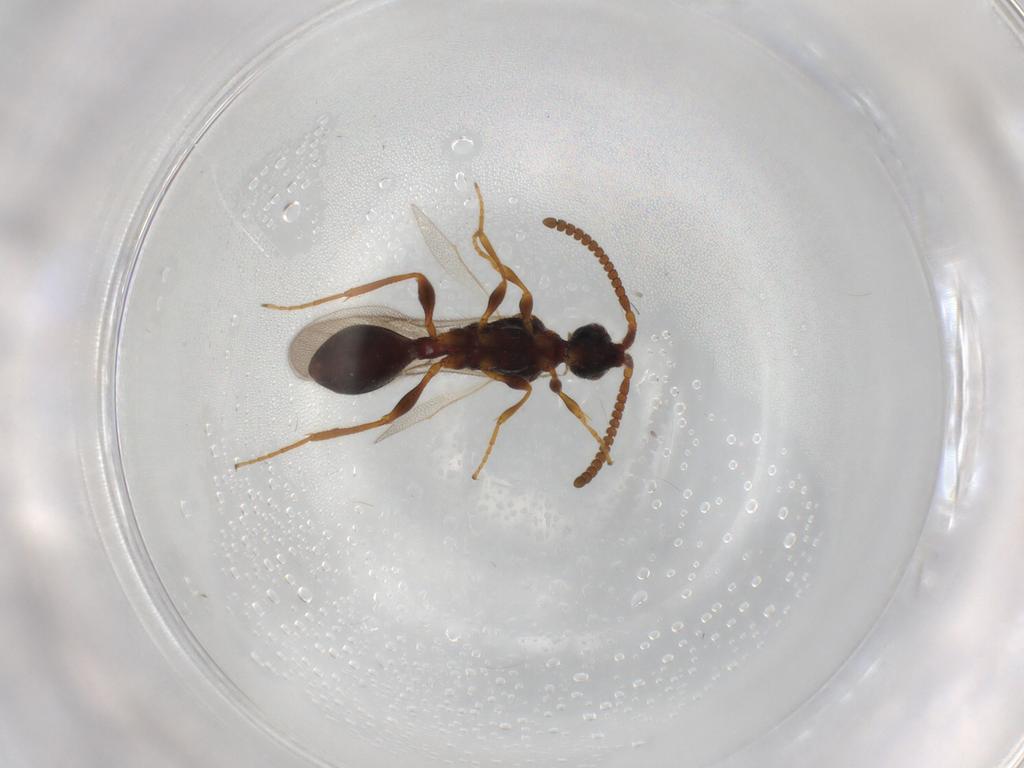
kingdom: Animalia
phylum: Arthropoda
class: Insecta
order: Hymenoptera
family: Diapriidae
